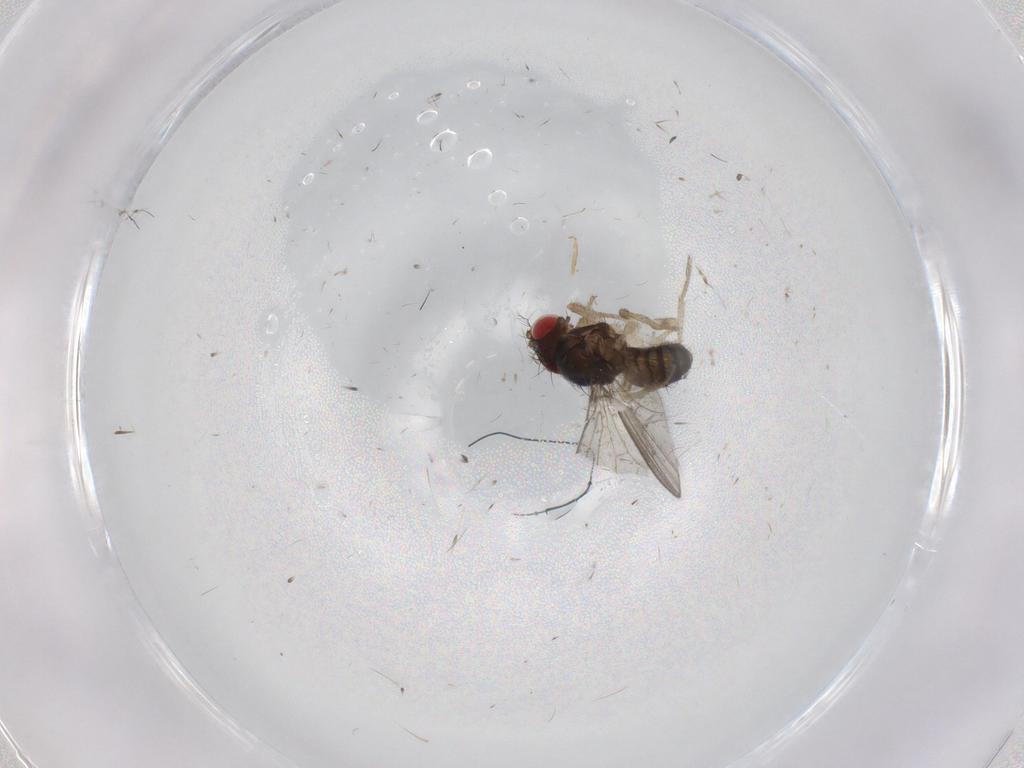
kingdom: Animalia
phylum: Arthropoda
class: Insecta
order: Diptera
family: Drosophilidae
